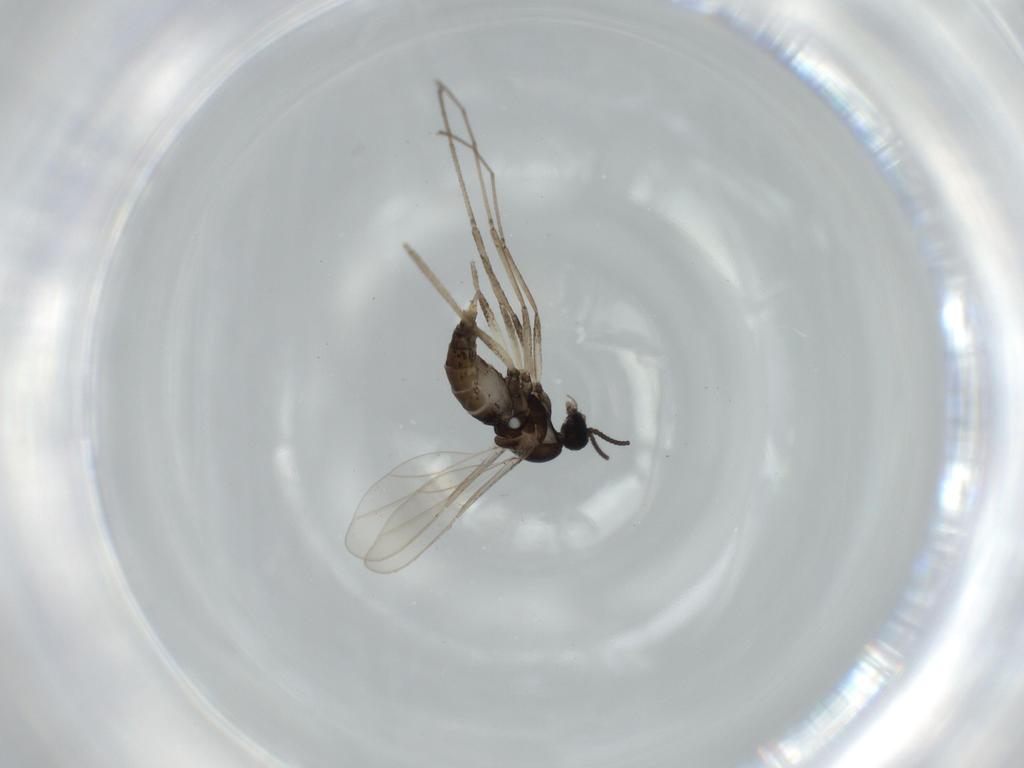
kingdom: Animalia
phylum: Arthropoda
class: Insecta
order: Diptera
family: Cecidomyiidae
